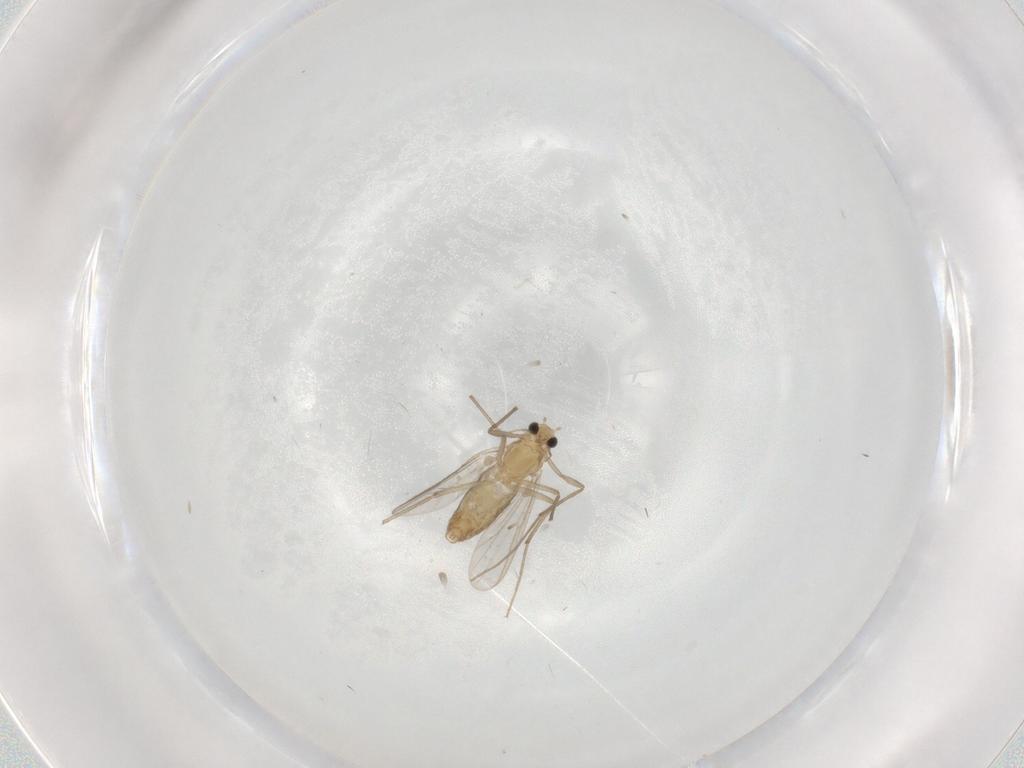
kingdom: Animalia
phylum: Arthropoda
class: Insecta
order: Diptera
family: Chironomidae
